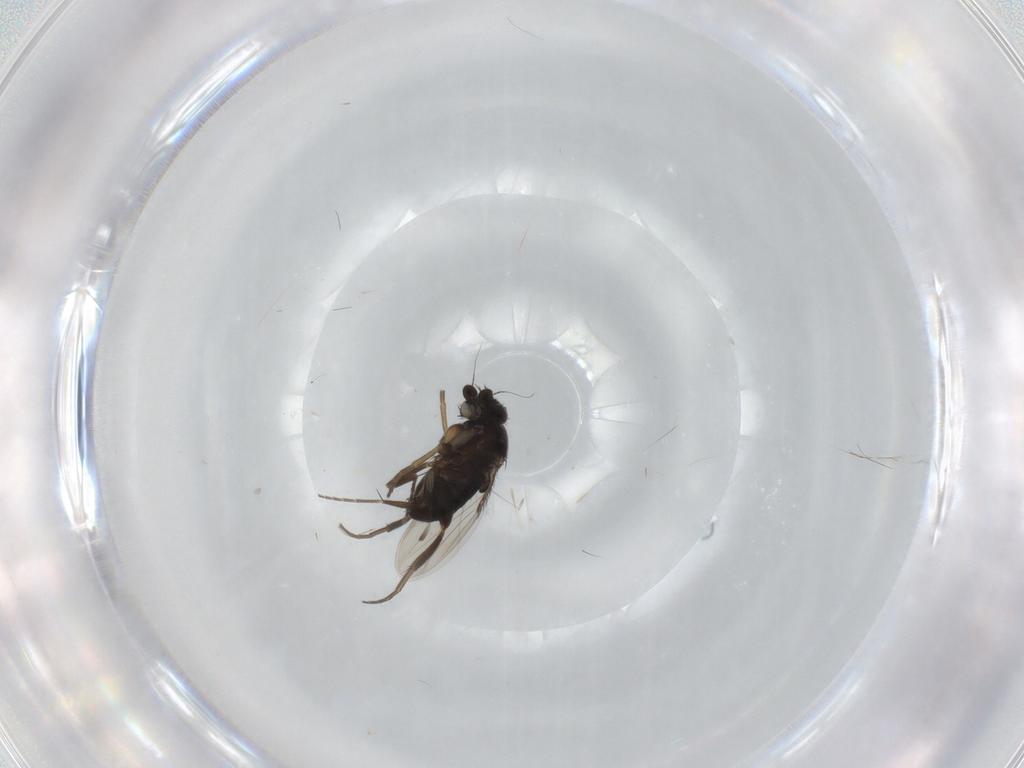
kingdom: Animalia
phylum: Arthropoda
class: Insecta
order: Diptera
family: Phoridae
